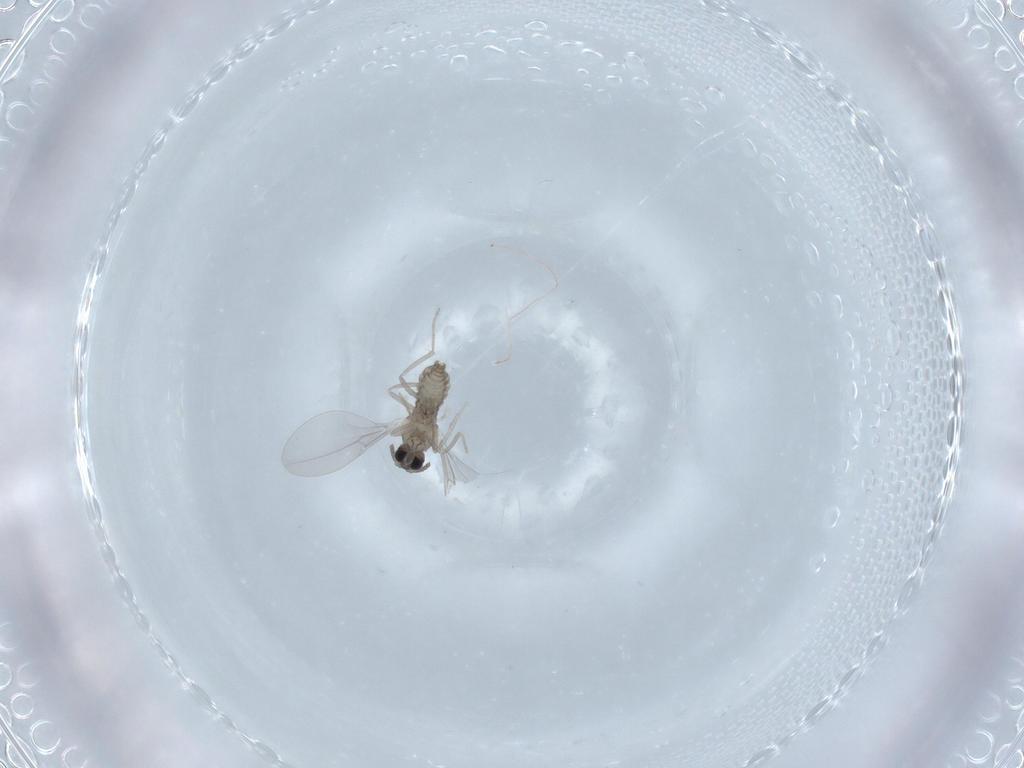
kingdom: Animalia
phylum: Arthropoda
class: Insecta
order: Diptera
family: Cecidomyiidae
